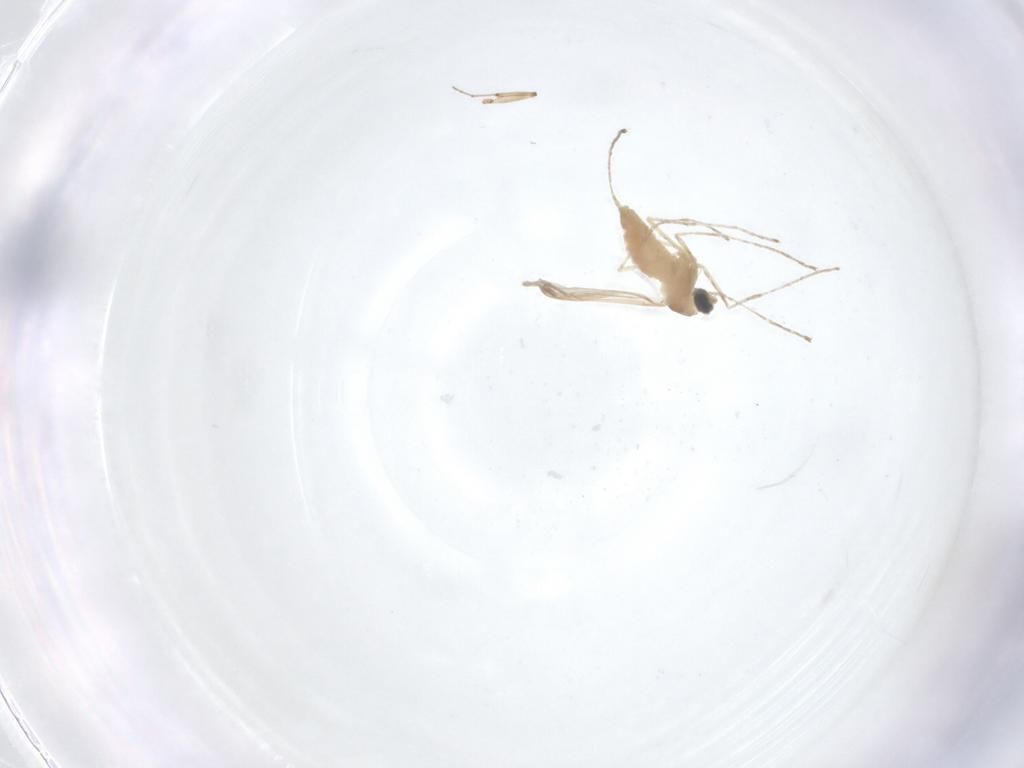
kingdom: Animalia
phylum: Arthropoda
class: Insecta
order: Diptera
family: Cecidomyiidae
